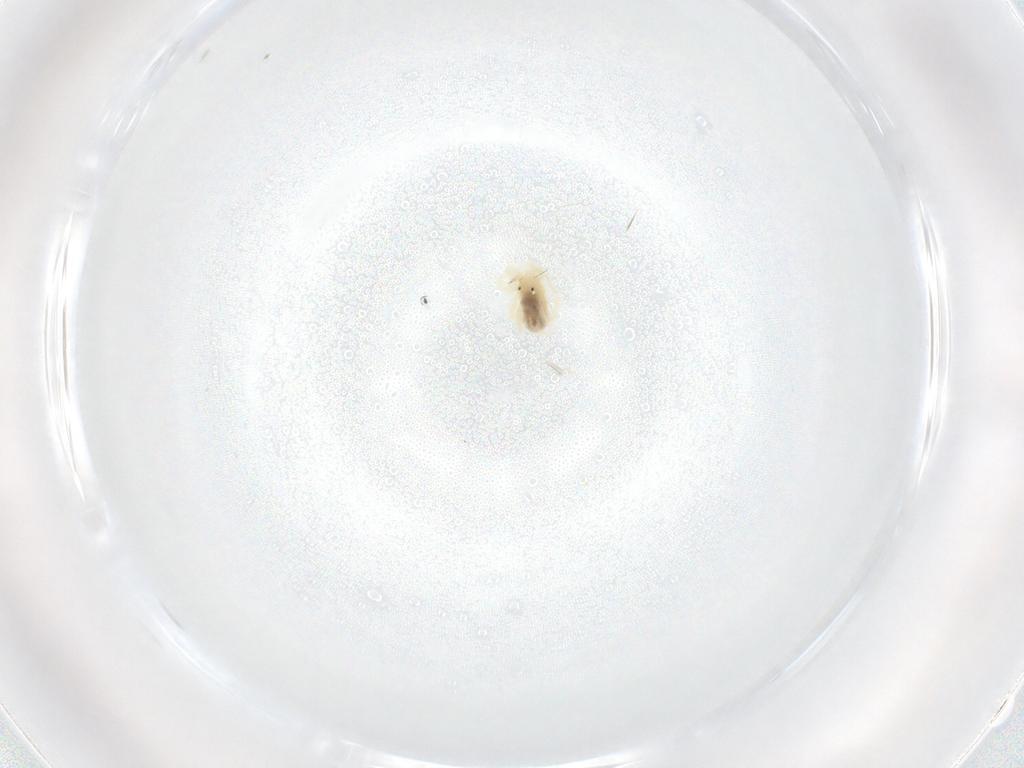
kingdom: Animalia
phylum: Arthropoda
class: Arachnida
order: Sarcoptiformes
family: Scheloribatidae
